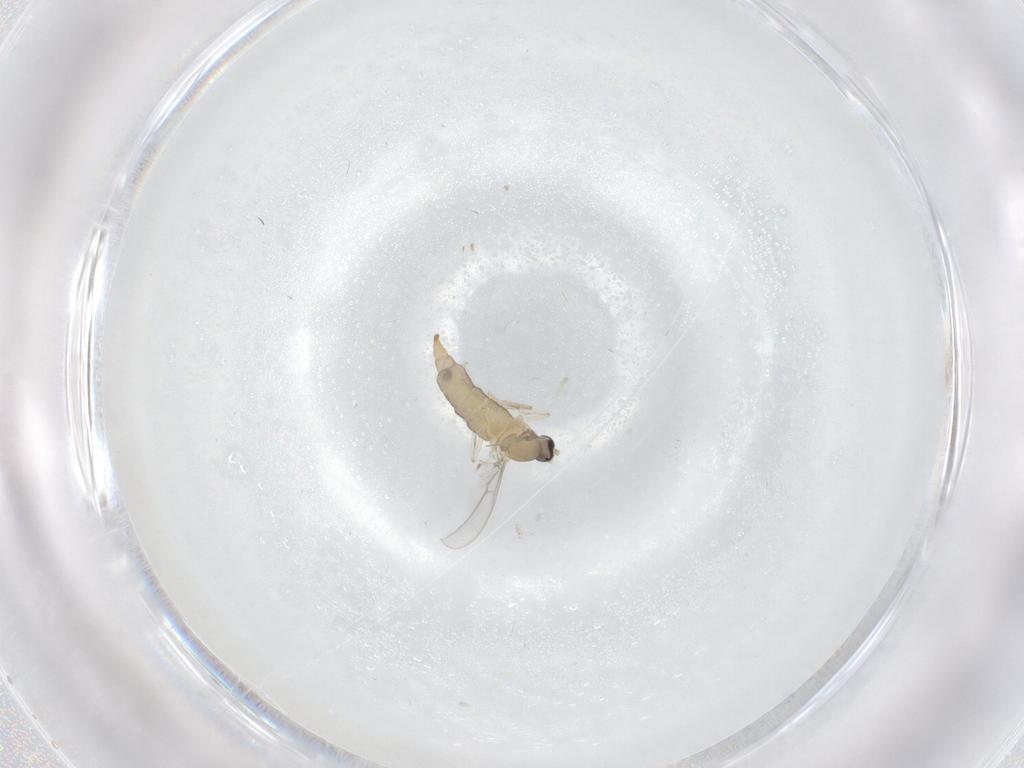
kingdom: Animalia
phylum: Arthropoda
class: Insecta
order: Diptera
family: Cecidomyiidae
